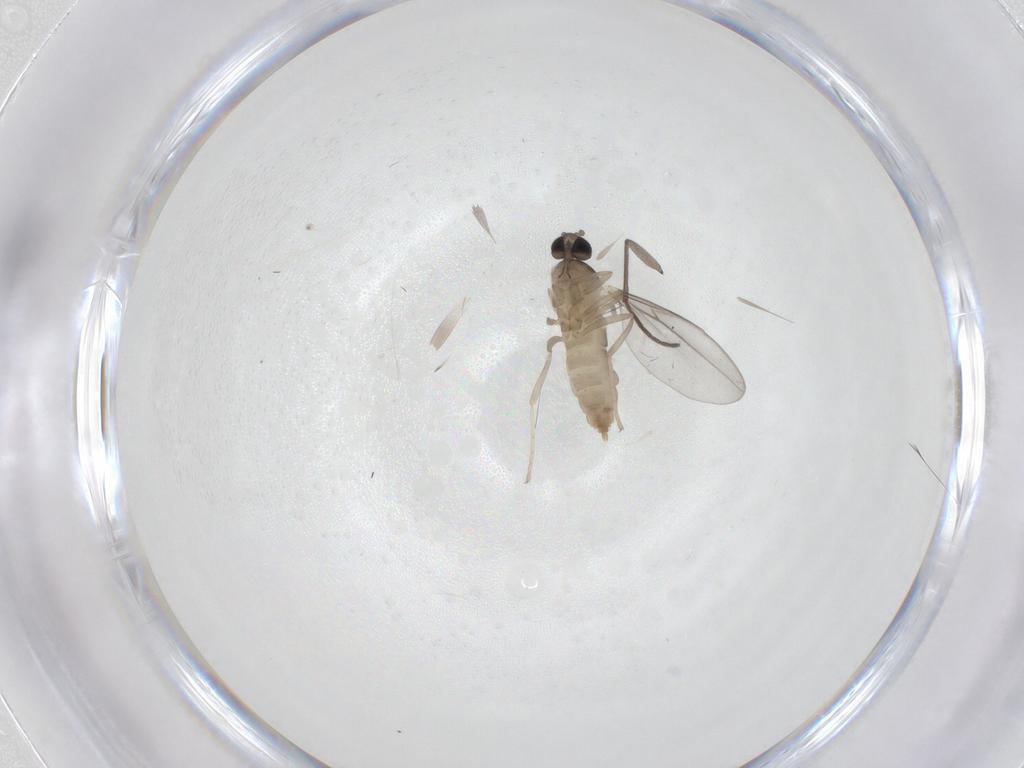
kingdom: Animalia
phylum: Arthropoda
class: Insecta
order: Diptera
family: Cecidomyiidae
